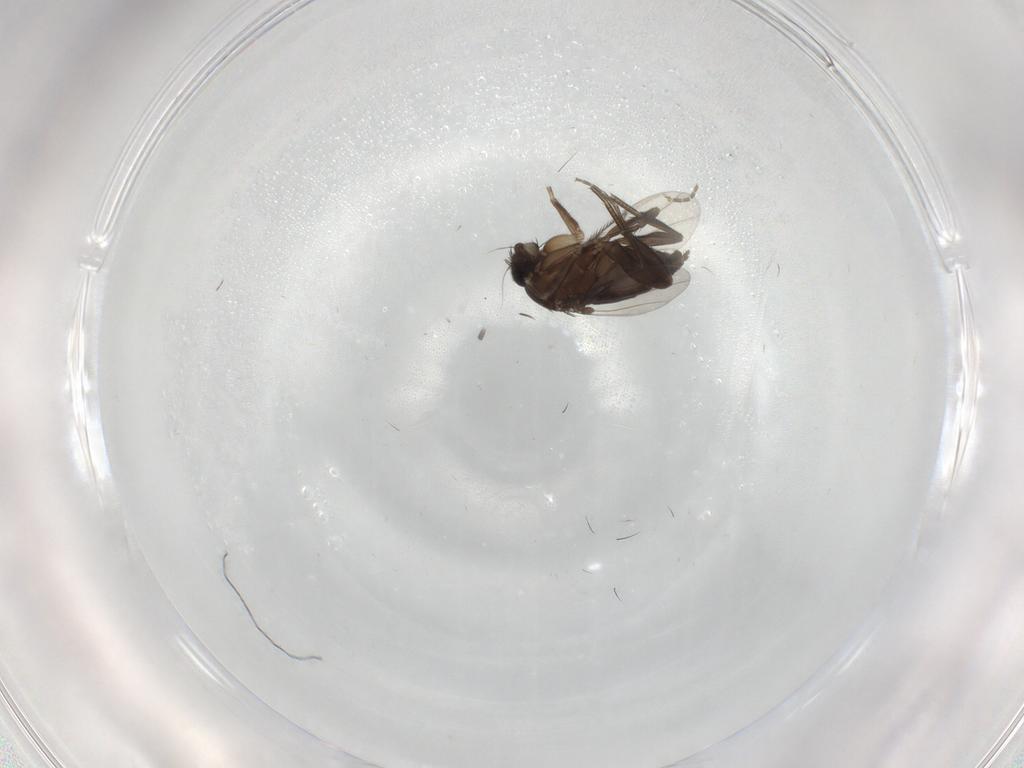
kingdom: Animalia
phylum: Arthropoda
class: Insecta
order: Diptera
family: Phoridae
